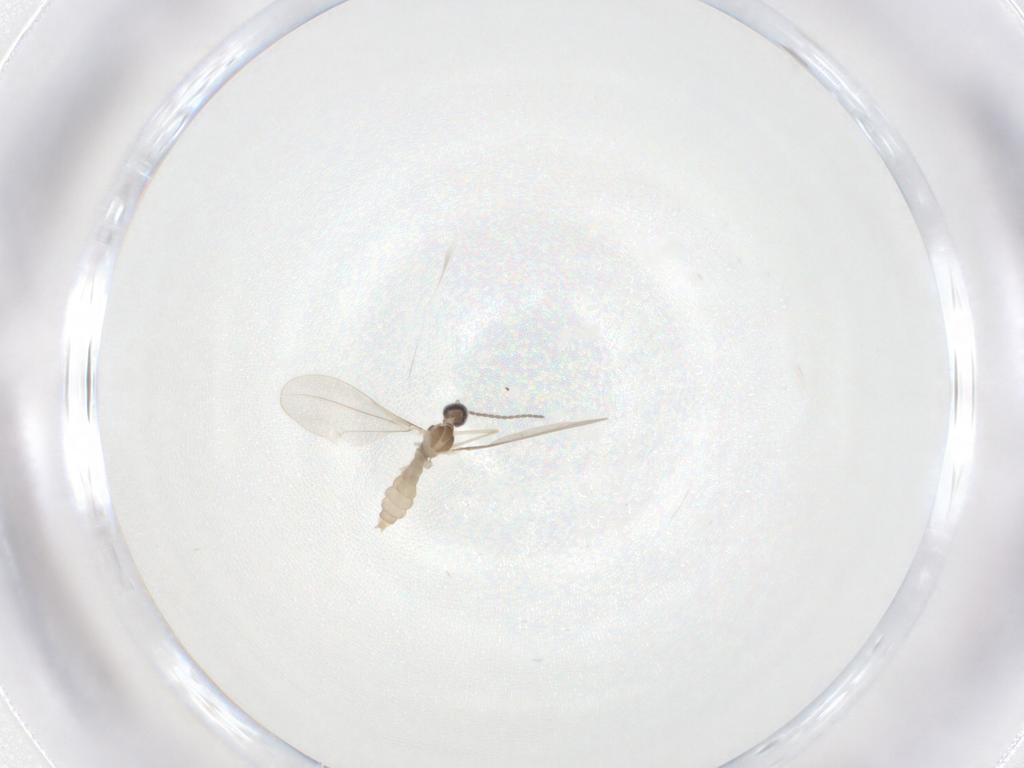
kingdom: Animalia
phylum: Arthropoda
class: Insecta
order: Diptera
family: Cecidomyiidae
